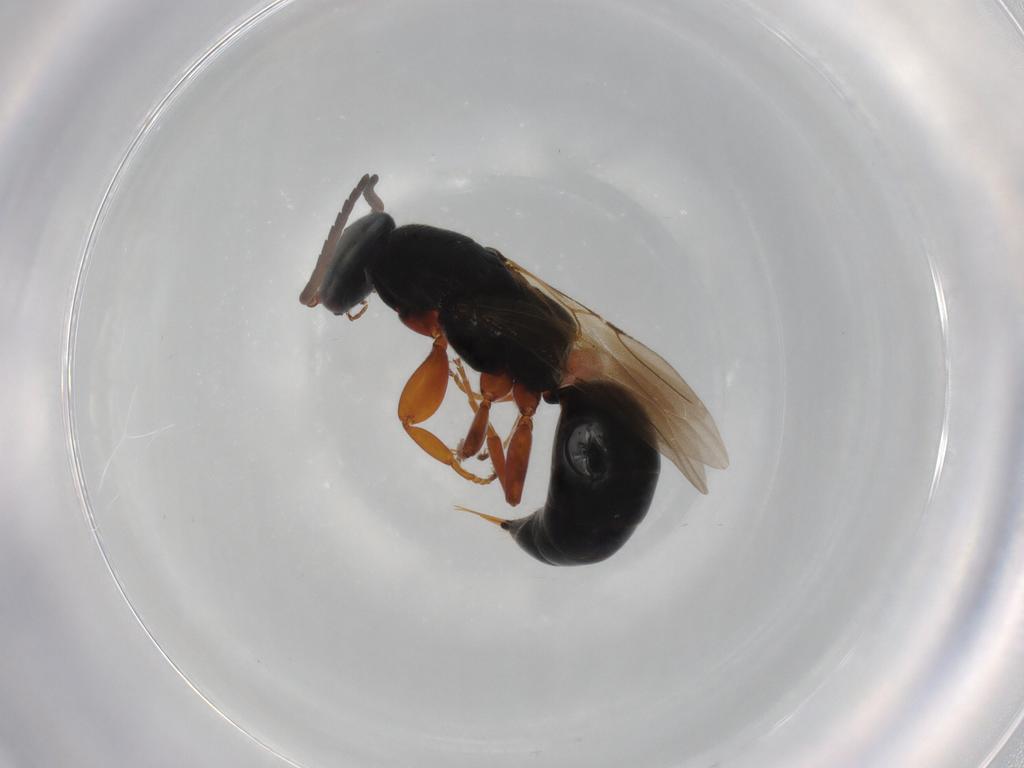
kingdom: Animalia
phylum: Arthropoda
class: Insecta
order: Hymenoptera
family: Bethylidae
